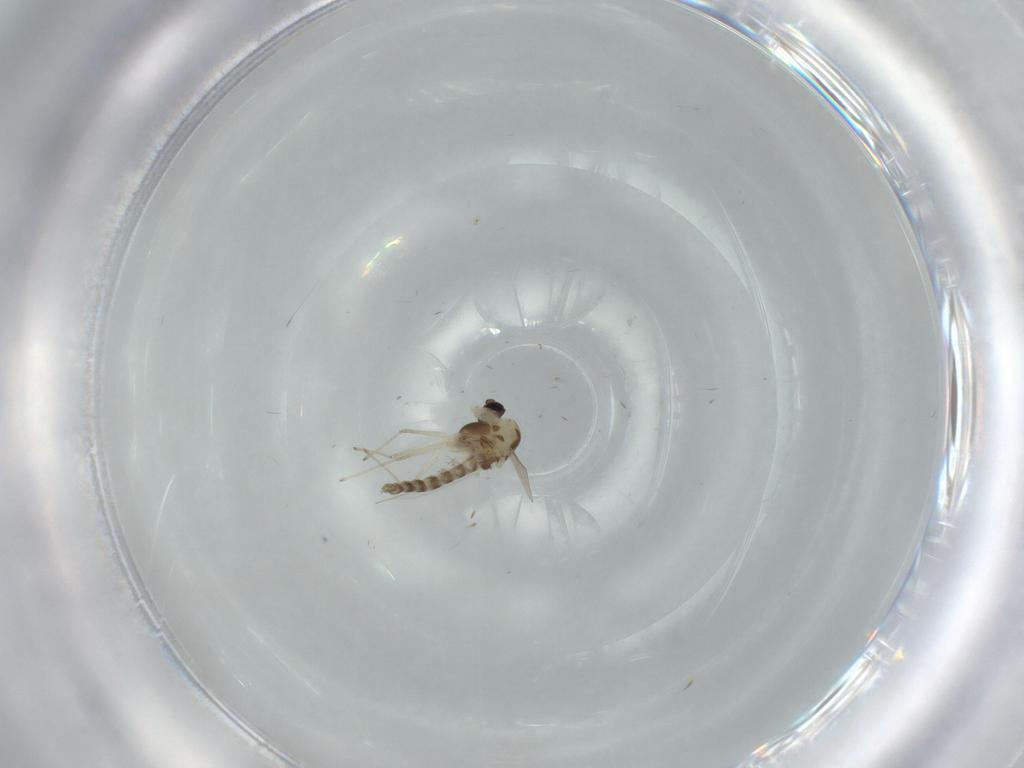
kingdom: Animalia
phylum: Arthropoda
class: Insecta
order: Diptera
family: Chironomidae
